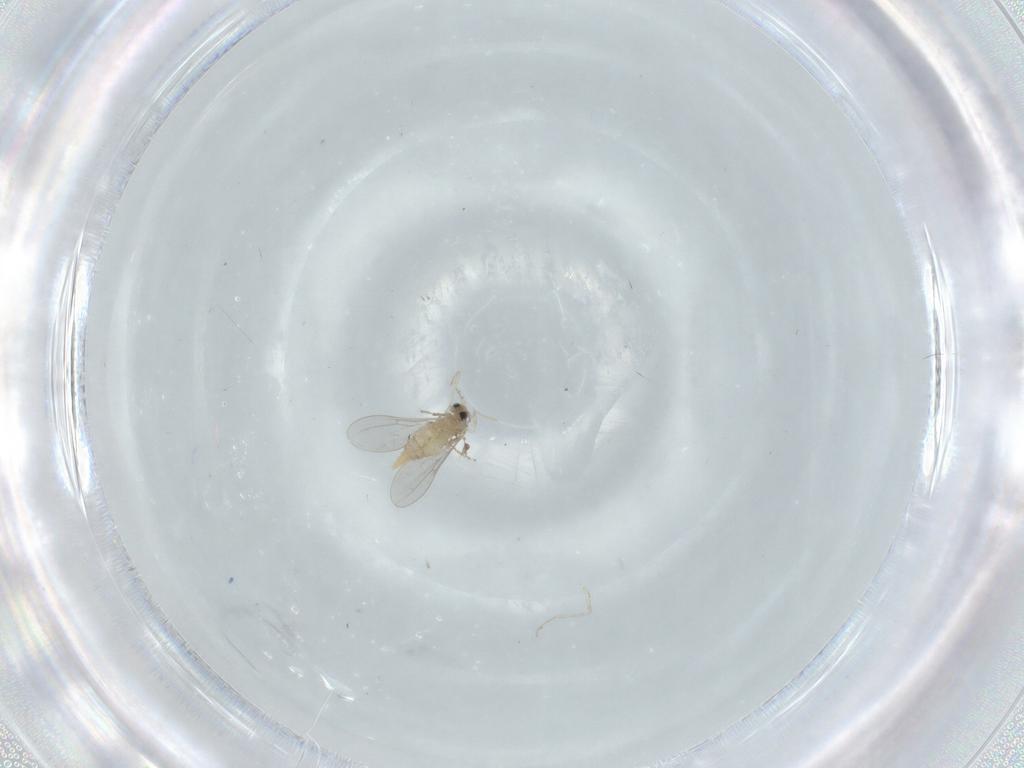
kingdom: Animalia
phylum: Arthropoda
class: Insecta
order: Diptera
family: Cecidomyiidae
